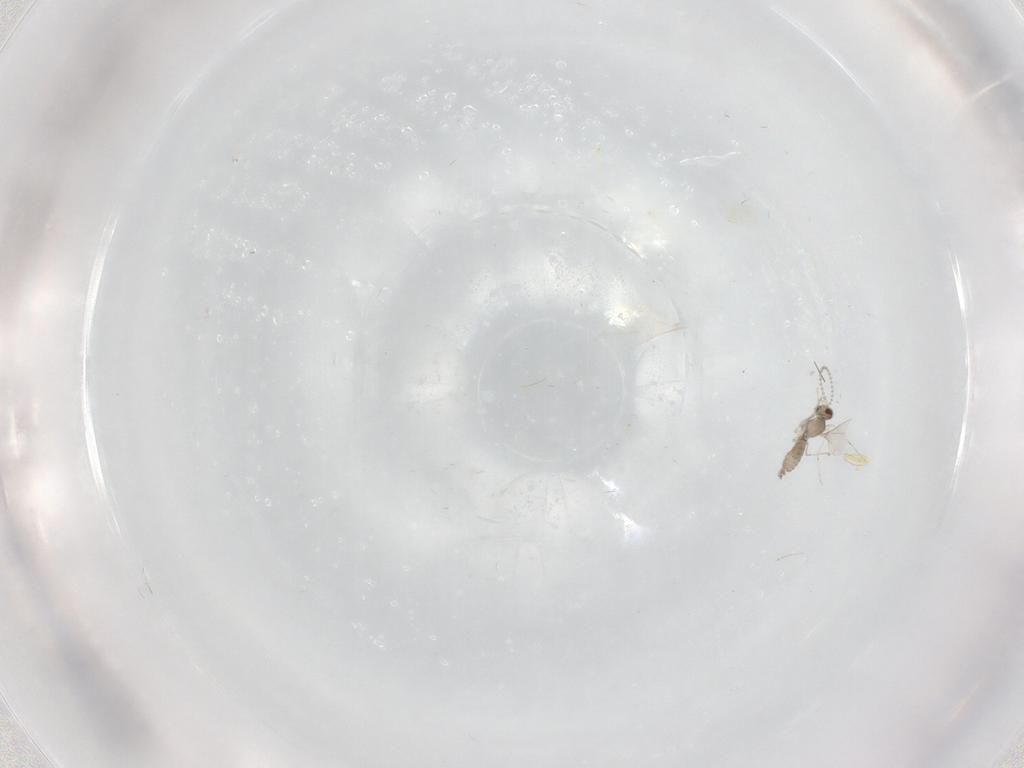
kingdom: Animalia
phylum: Arthropoda
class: Insecta
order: Diptera
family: Cecidomyiidae
